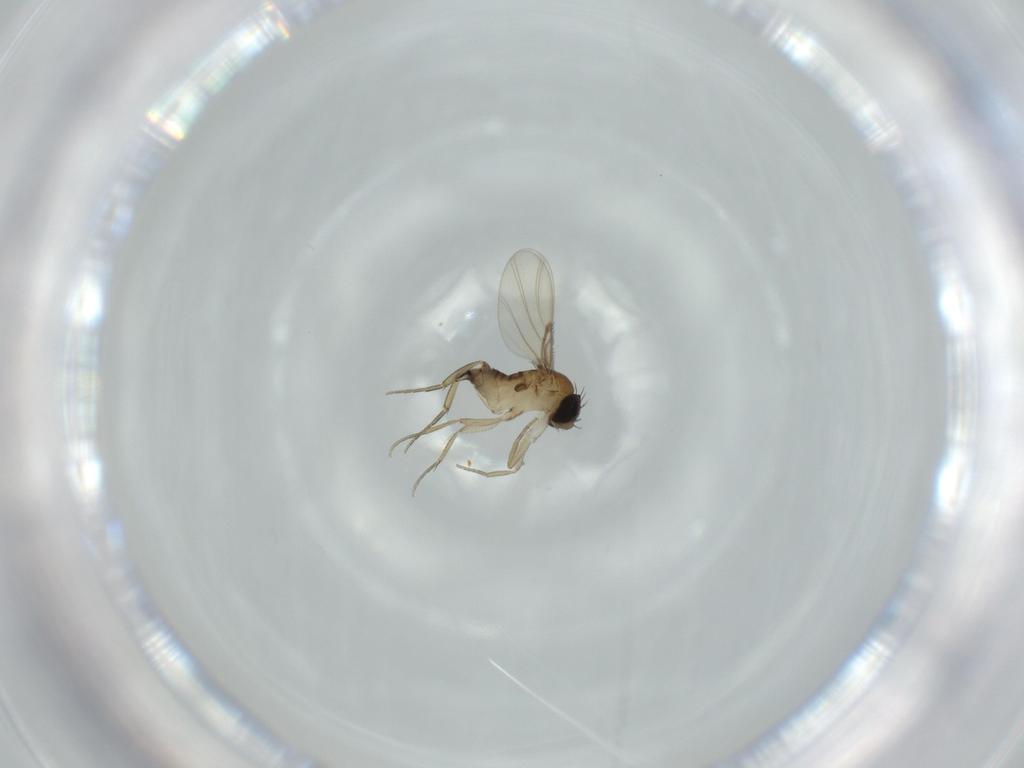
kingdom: Animalia
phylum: Arthropoda
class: Insecta
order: Diptera
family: Phoridae
